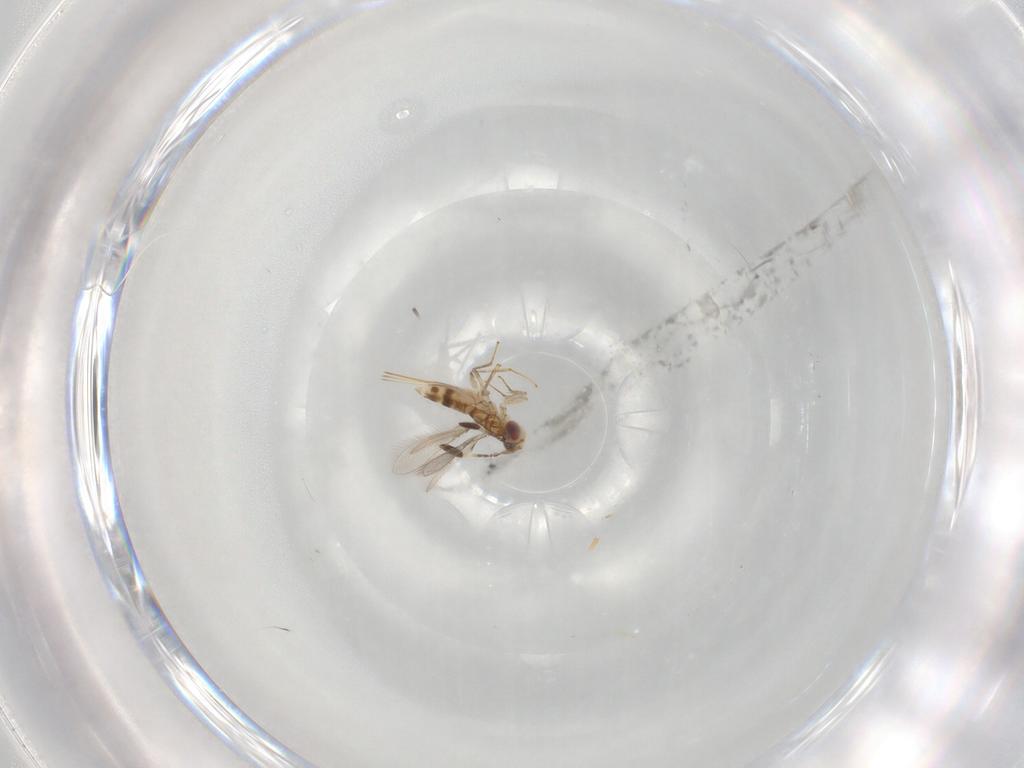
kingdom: Animalia
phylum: Arthropoda
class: Insecta
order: Hymenoptera
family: Mymaridae
